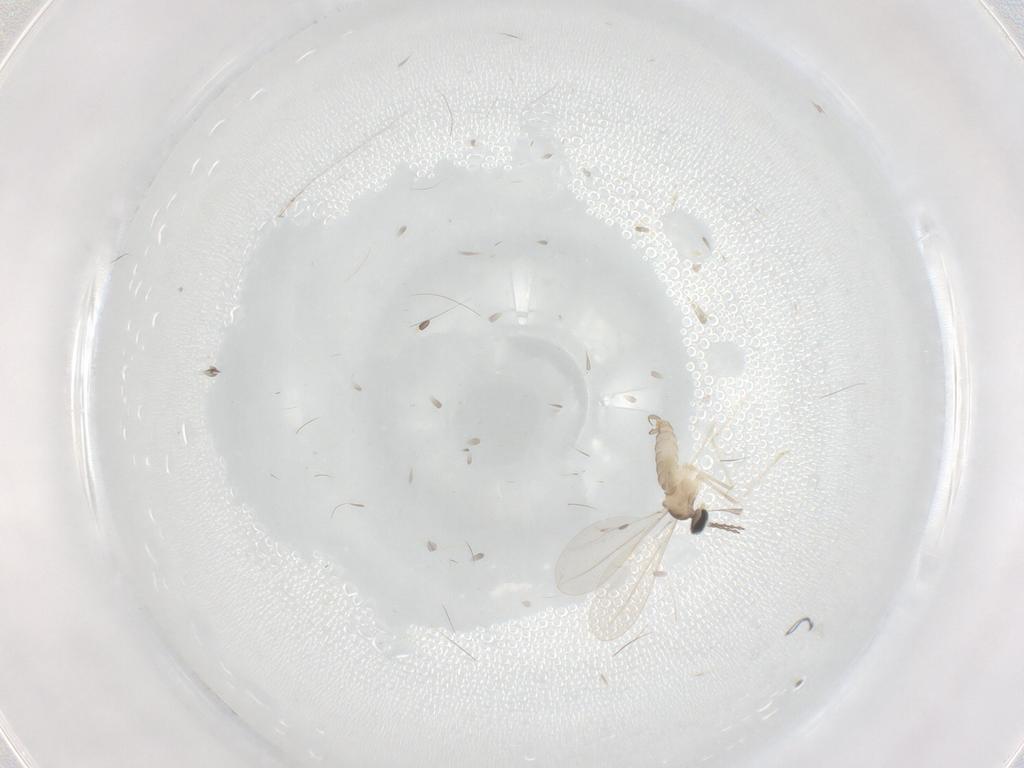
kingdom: Animalia
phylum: Arthropoda
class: Insecta
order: Diptera
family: Cecidomyiidae
